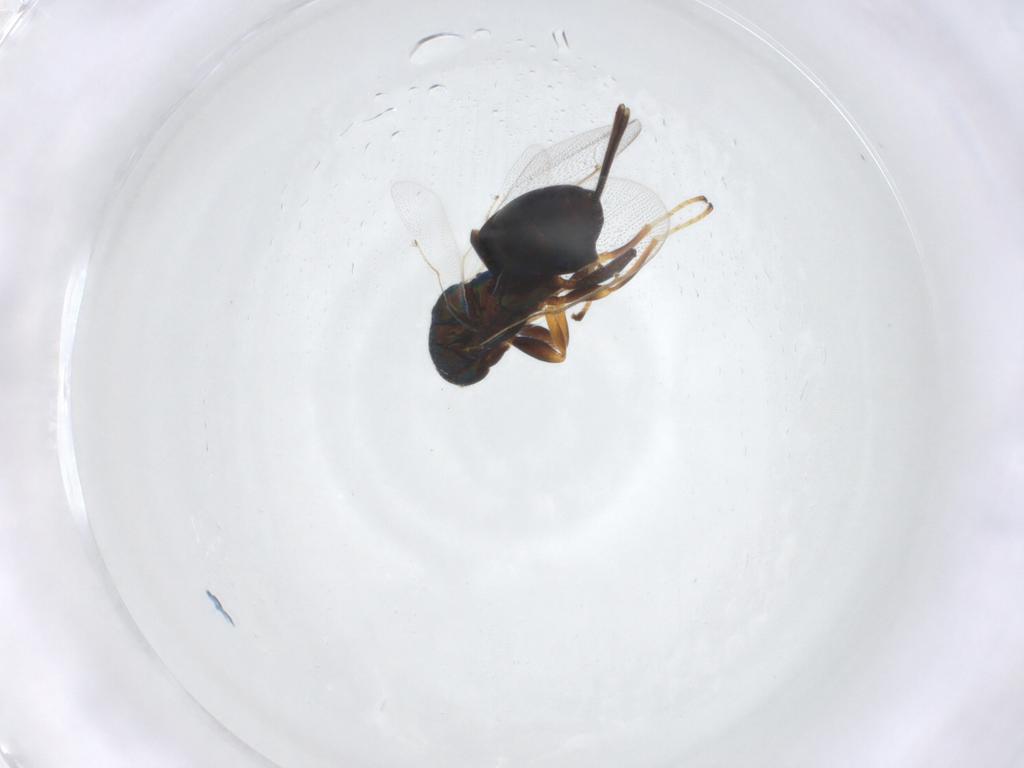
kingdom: Animalia
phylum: Arthropoda
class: Insecta
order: Hymenoptera
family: Torymidae
